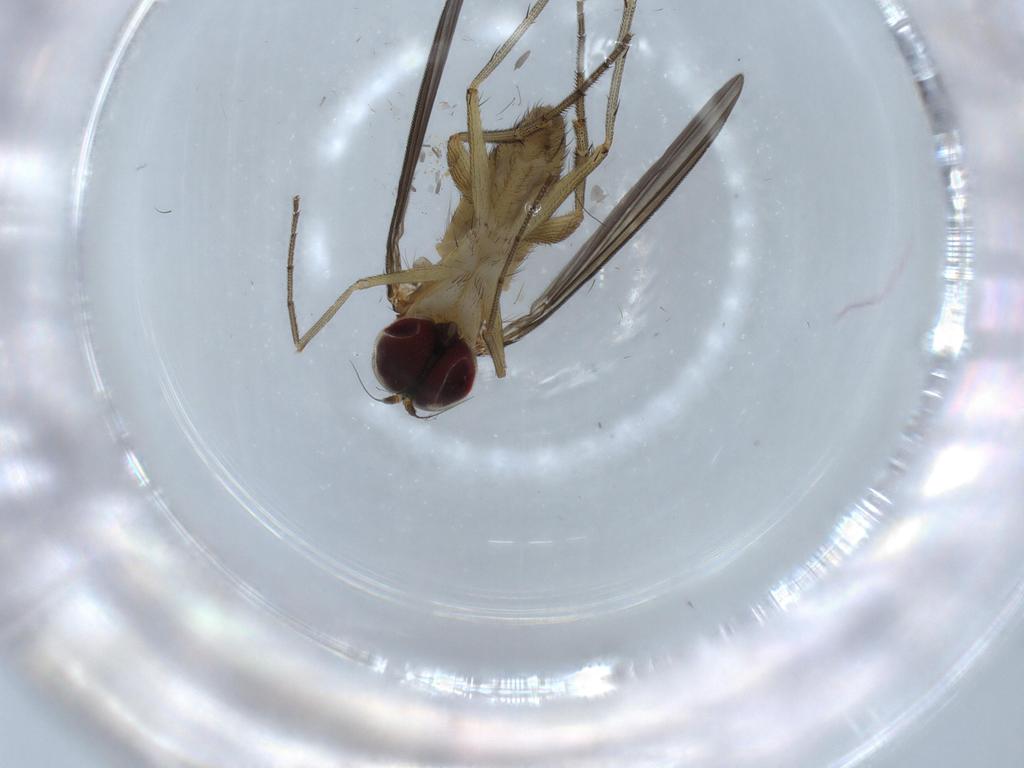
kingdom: Animalia
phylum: Arthropoda
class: Insecta
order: Diptera
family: Dolichopodidae
